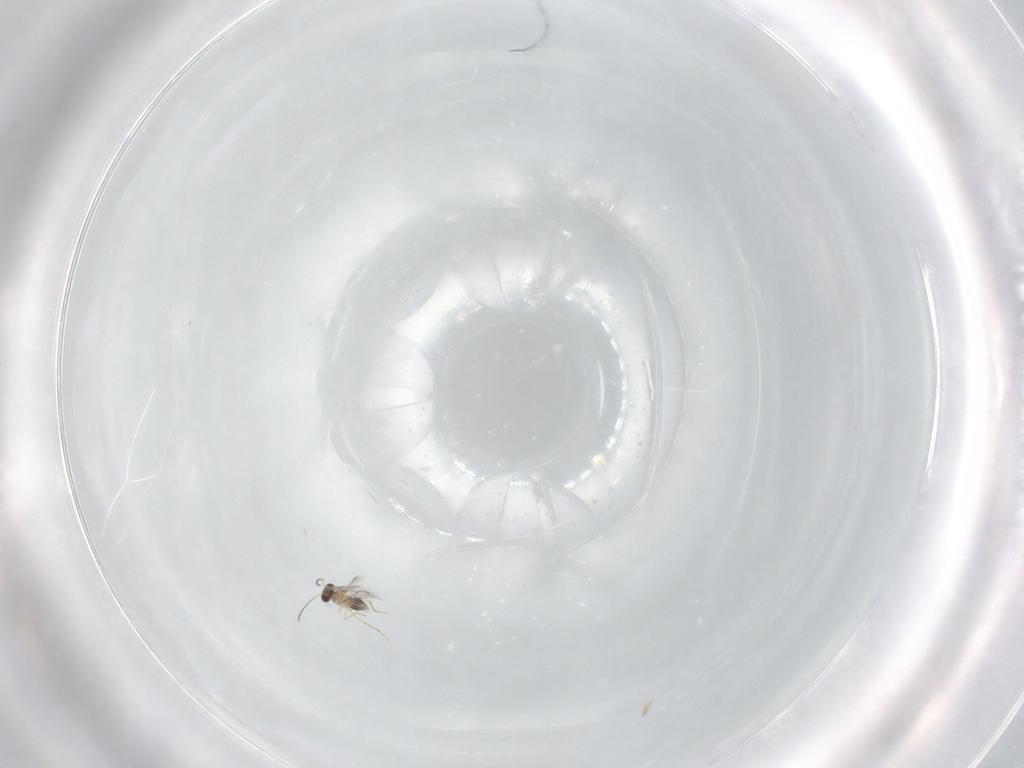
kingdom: Animalia
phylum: Arthropoda
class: Insecta
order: Hymenoptera
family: Mymaridae
